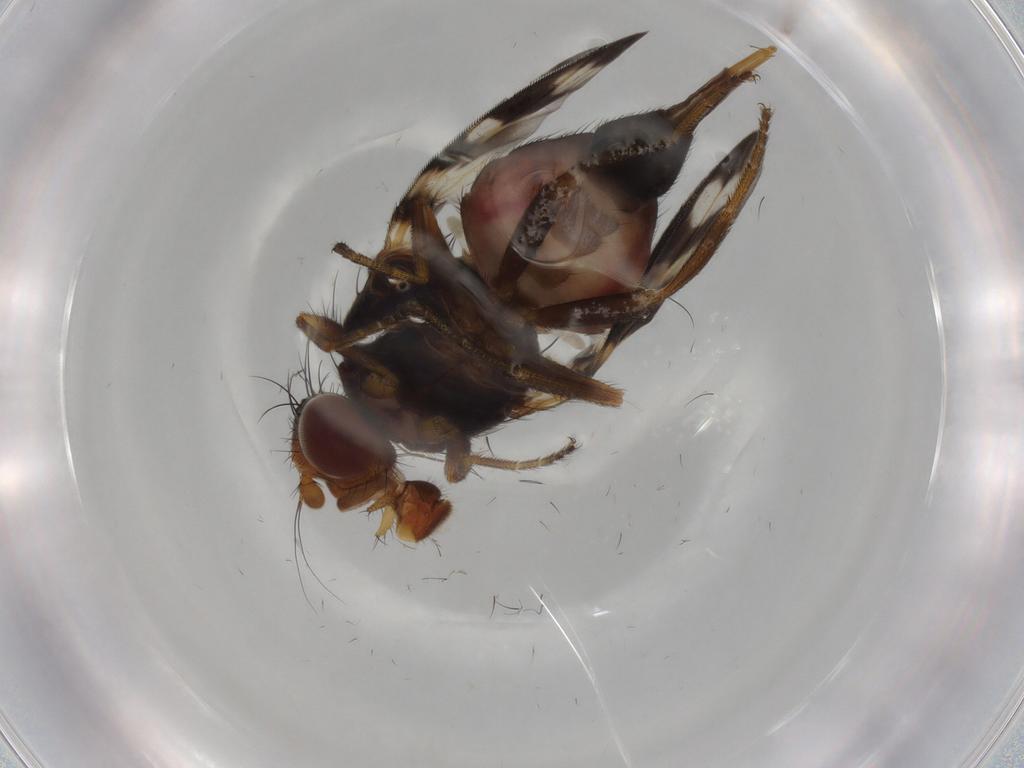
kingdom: Animalia
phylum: Arthropoda
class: Insecta
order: Diptera
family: Ulidiidae
